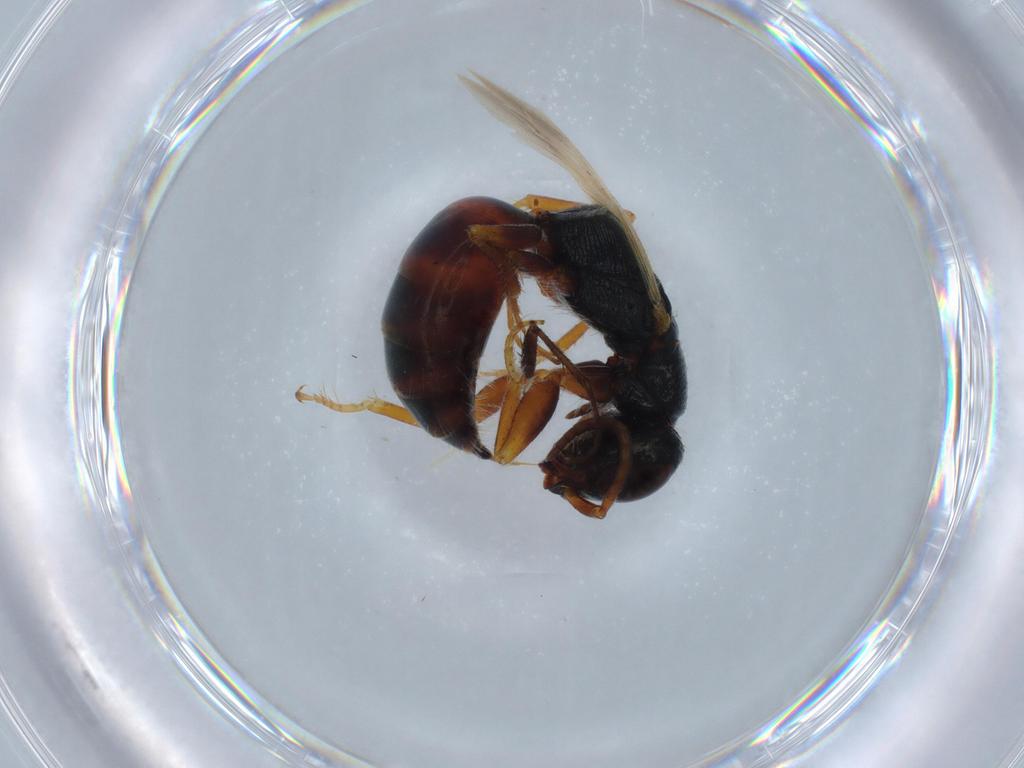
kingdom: Animalia
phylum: Arthropoda
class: Insecta
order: Hymenoptera
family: Bethylidae
